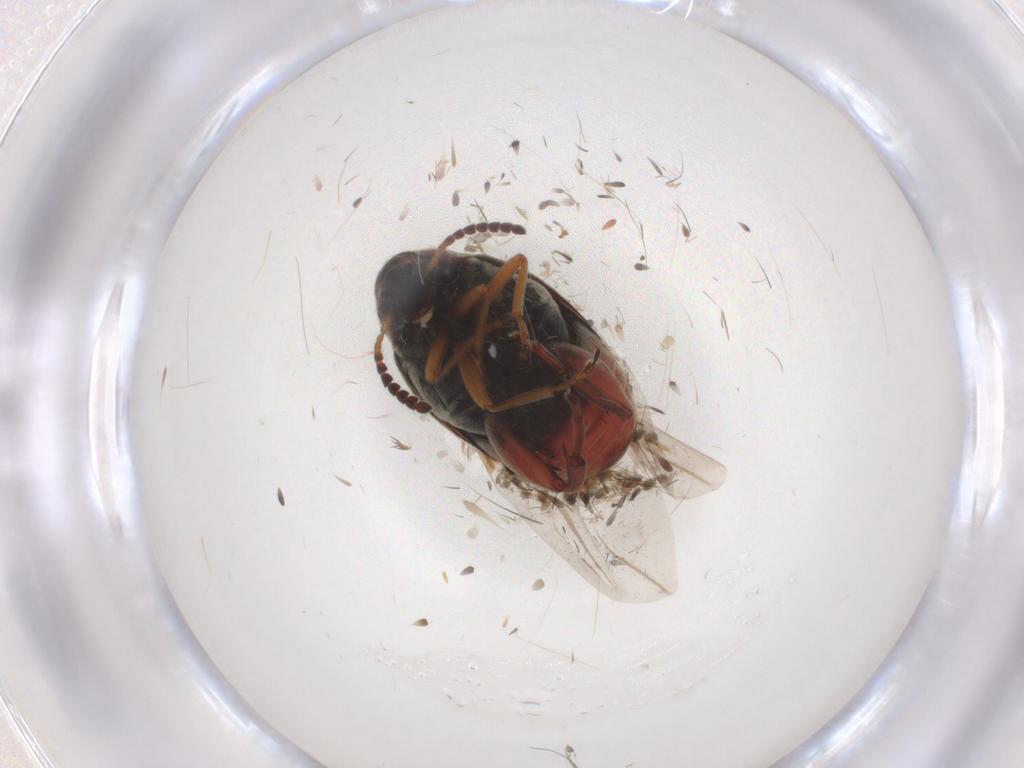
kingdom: Animalia
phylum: Arthropoda
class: Insecta
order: Coleoptera
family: Chrysomelidae
